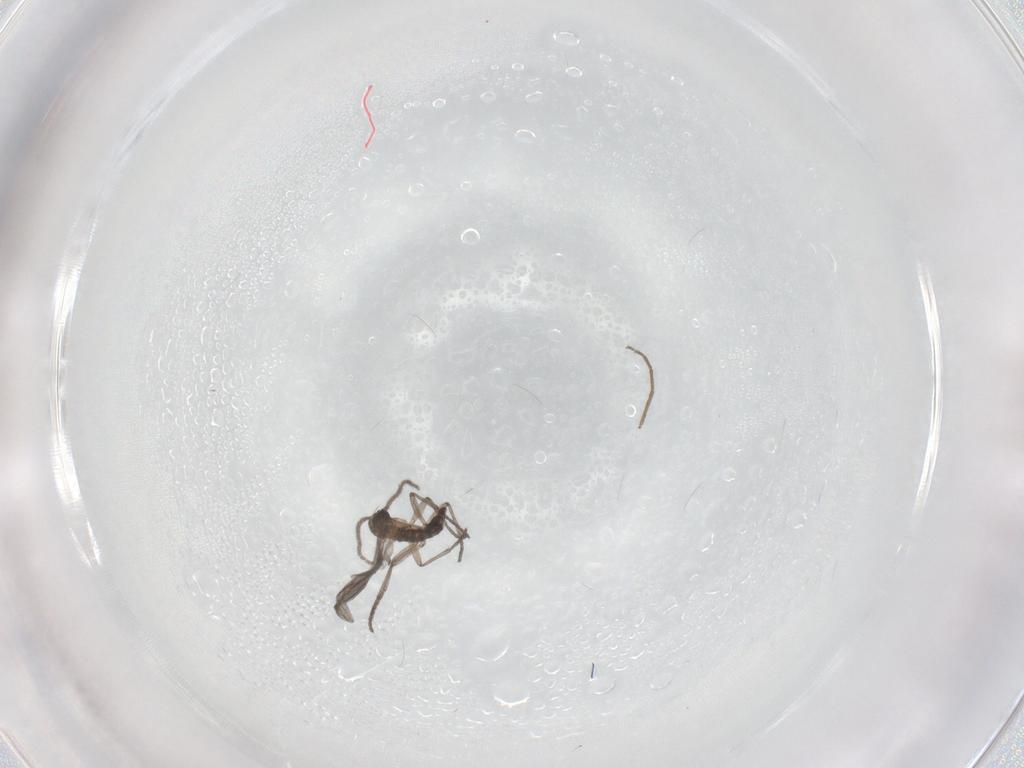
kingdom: Animalia
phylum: Arthropoda
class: Insecta
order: Diptera
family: Sciaridae
